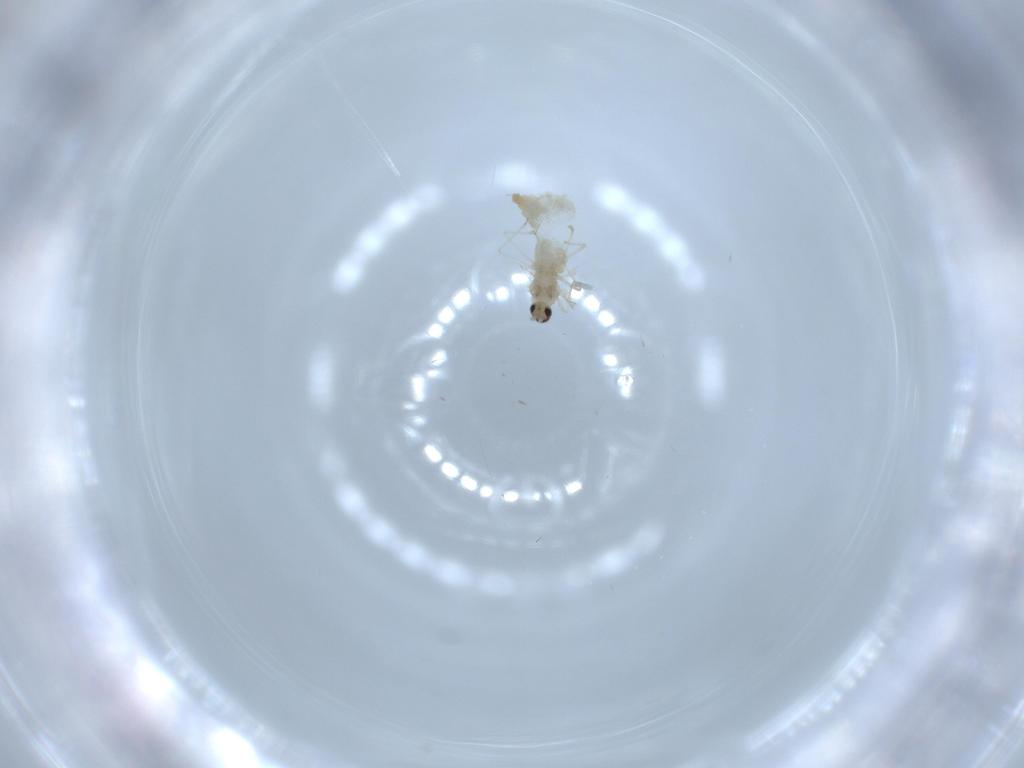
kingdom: Animalia
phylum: Arthropoda
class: Insecta
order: Diptera
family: Cecidomyiidae
